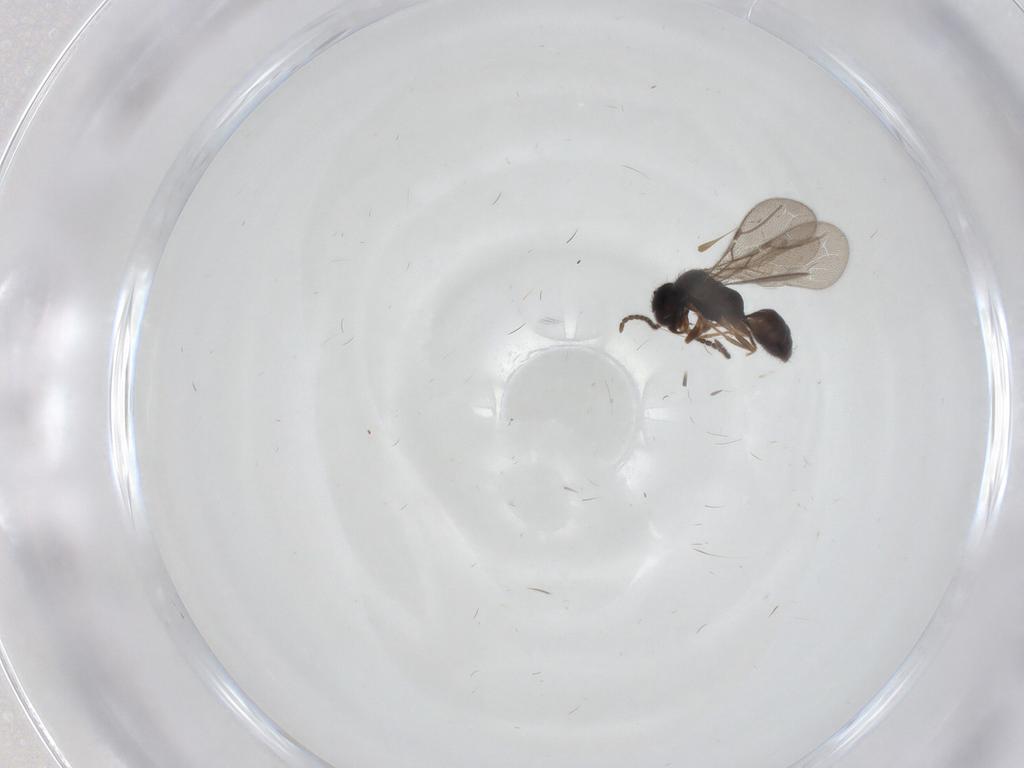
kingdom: Animalia
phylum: Arthropoda
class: Insecta
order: Hymenoptera
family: Bethylidae
